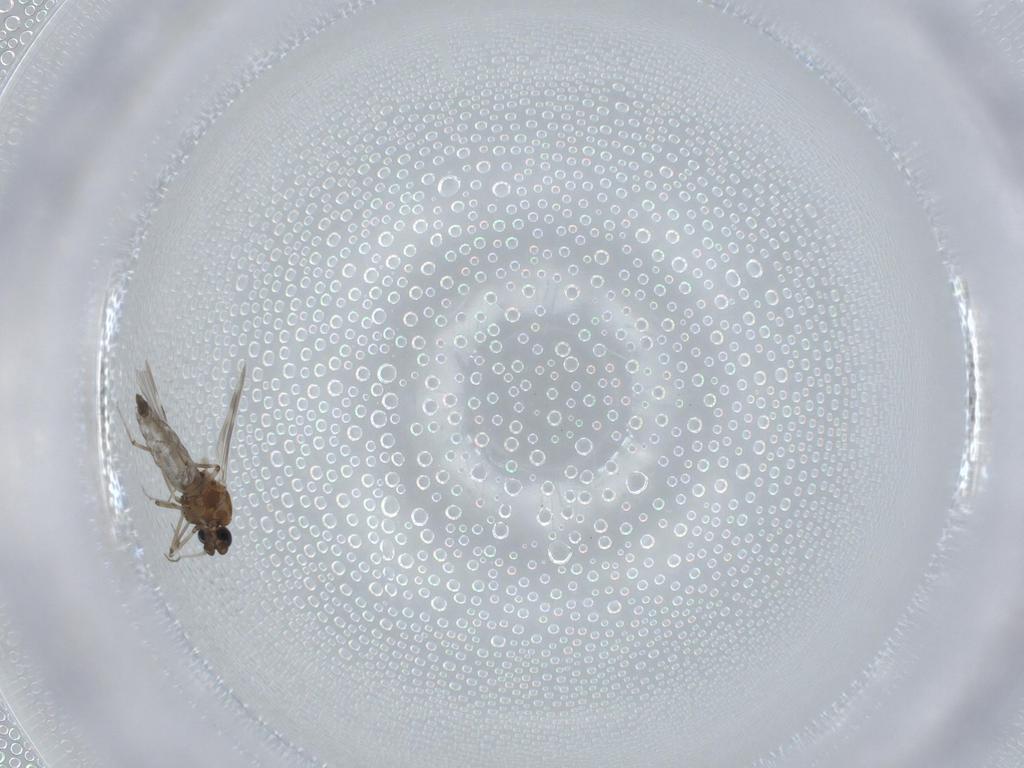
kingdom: Animalia
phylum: Arthropoda
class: Insecta
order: Diptera
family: Ceratopogonidae
